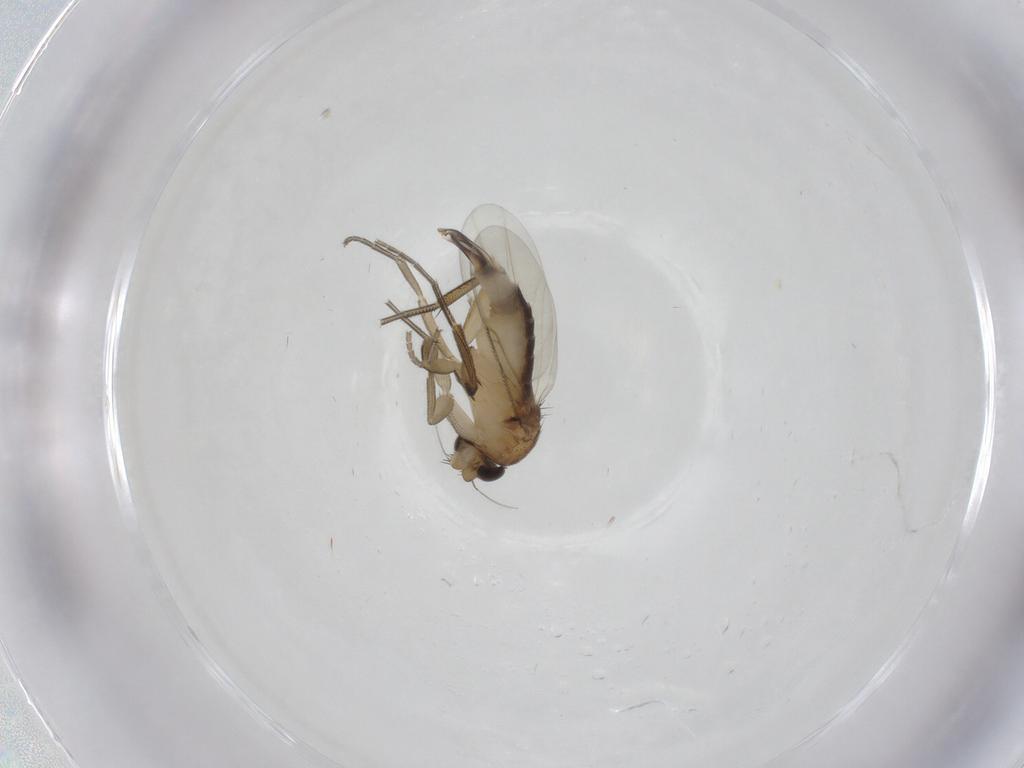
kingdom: Animalia
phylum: Arthropoda
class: Insecta
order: Diptera
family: Phoridae
